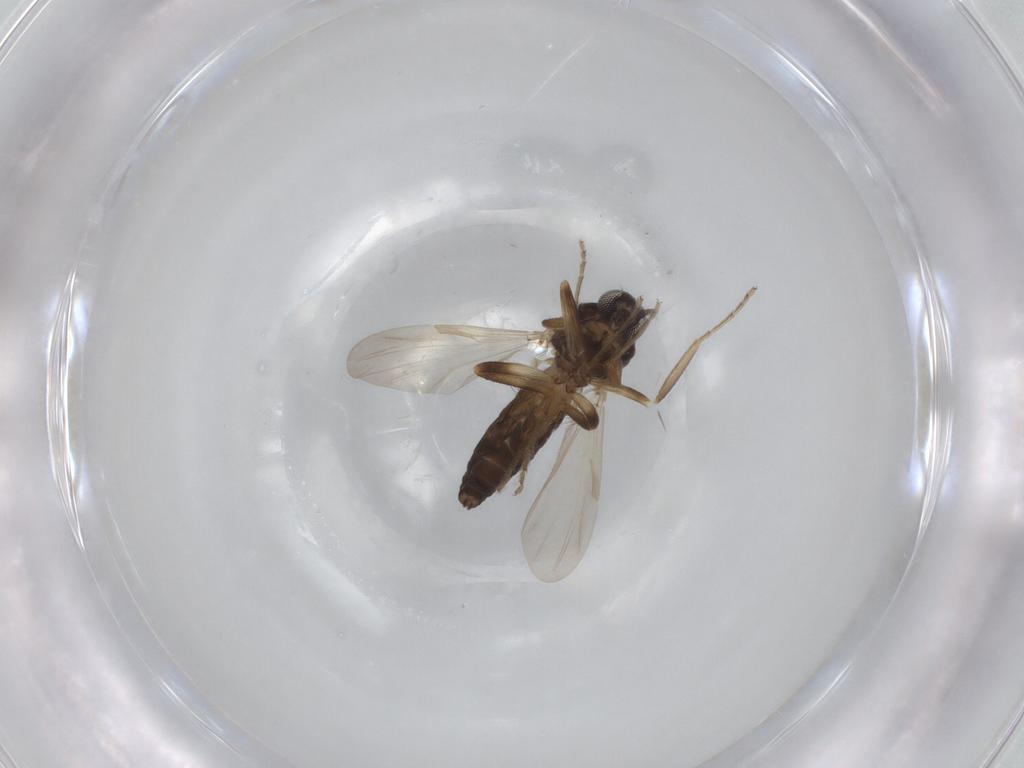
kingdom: Animalia
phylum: Arthropoda
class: Insecta
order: Diptera
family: Ceratopogonidae
